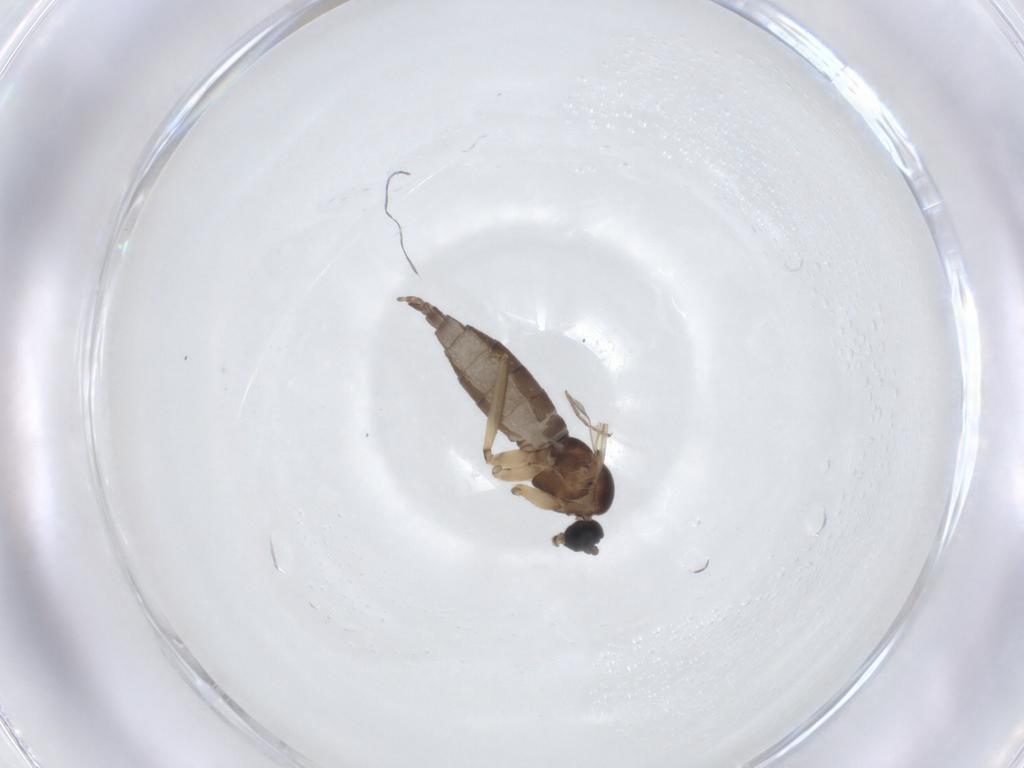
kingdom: Animalia
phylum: Arthropoda
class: Insecta
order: Diptera
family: Sciaridae
